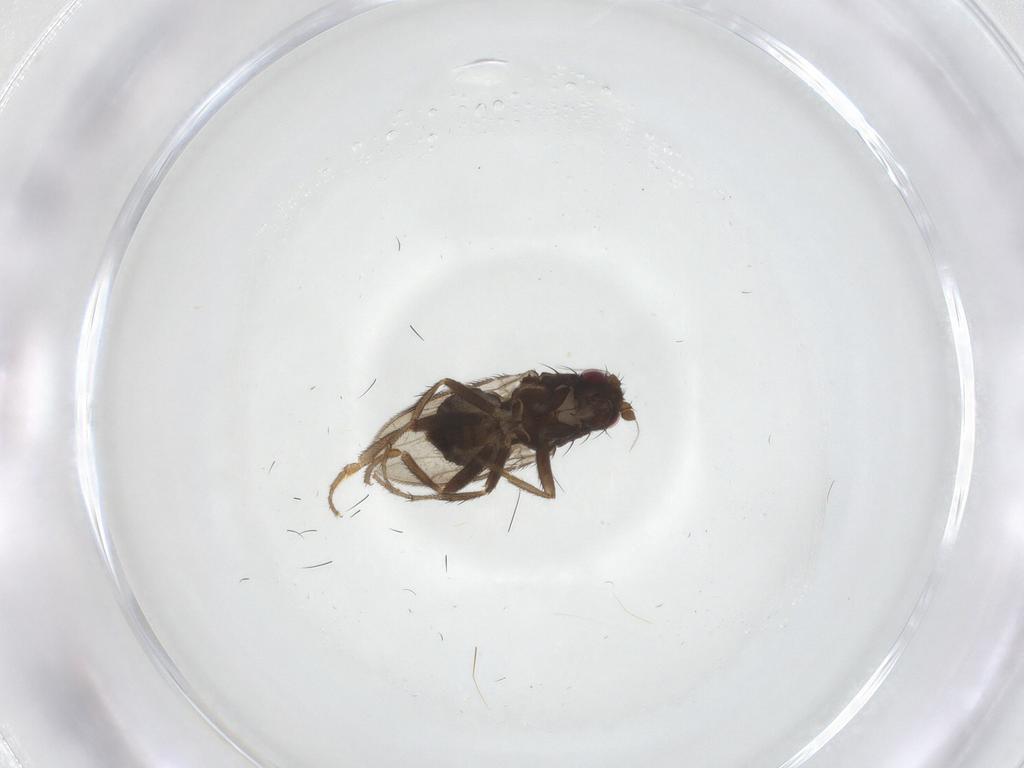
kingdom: Animalia
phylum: Arthropoda
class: Insecta
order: Diptera
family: Sphaeroceridae
